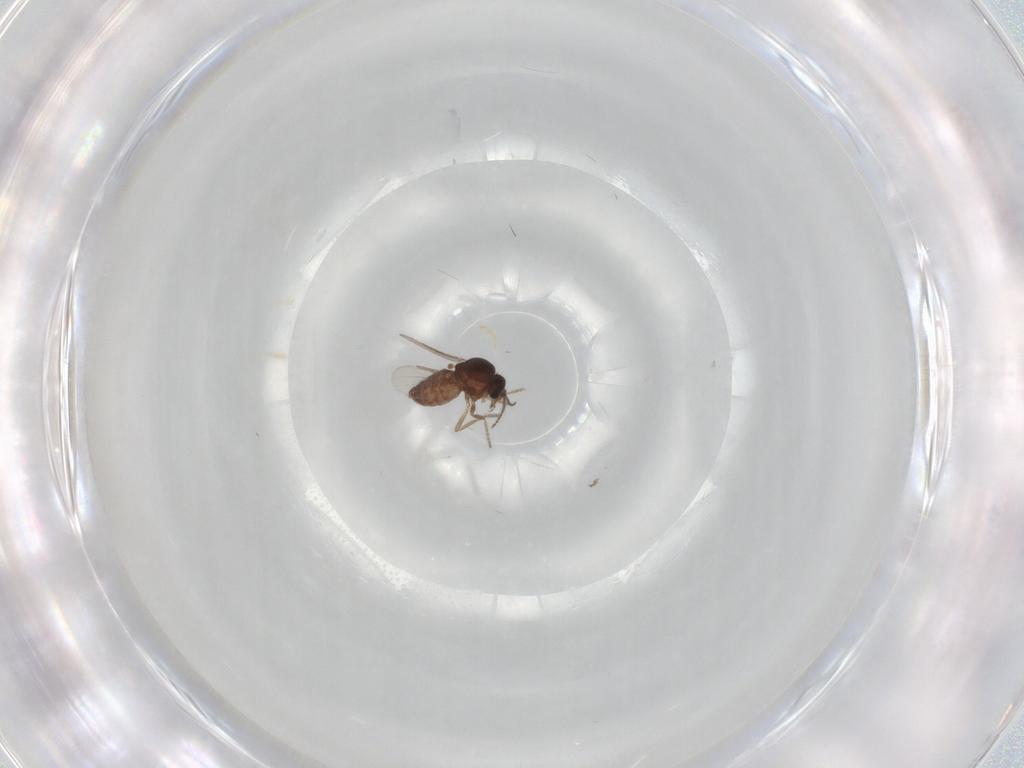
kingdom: Animalia
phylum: Arthropoda
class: Insecta
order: Diptera
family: Ceratopogonidae
